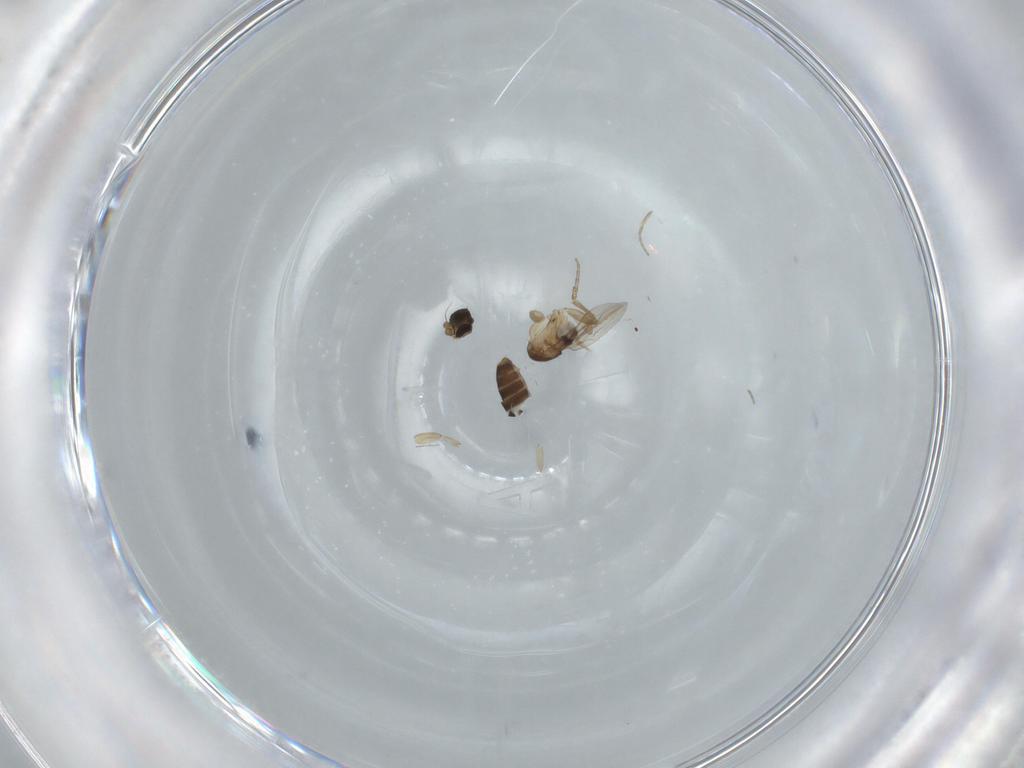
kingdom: Animalia
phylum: Arthropoda
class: Insecta
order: Diptera
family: Phoridae
